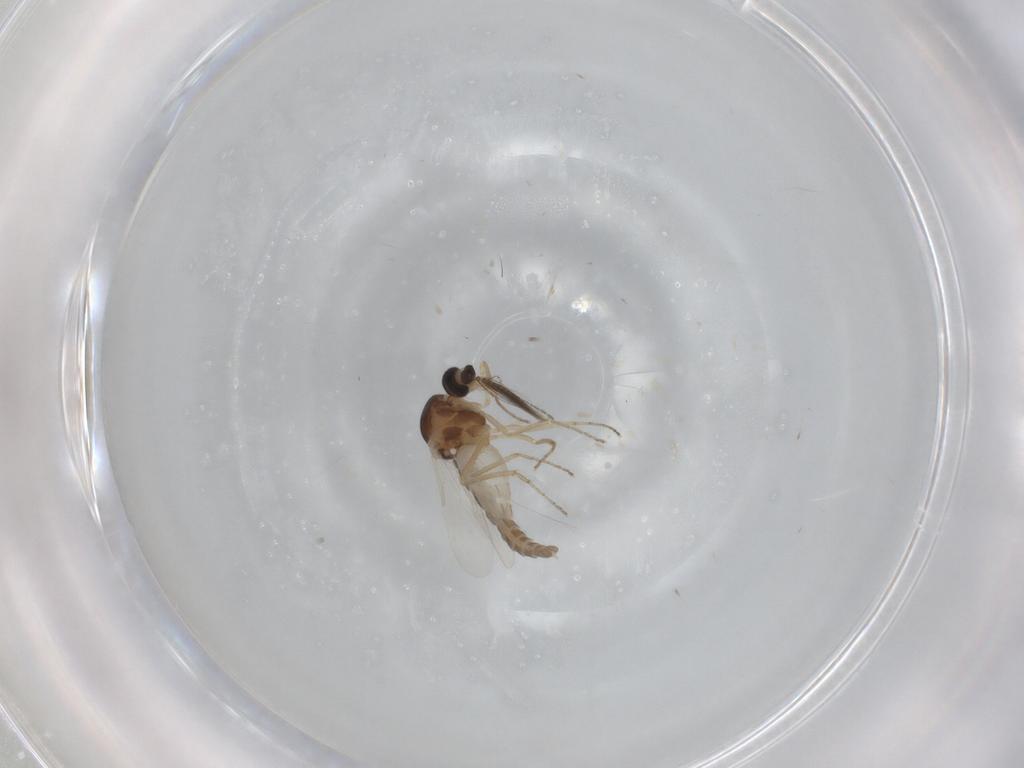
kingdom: Animalia
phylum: Arthropoda
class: Insecta
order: Diptera
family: Ceratopogonidae
